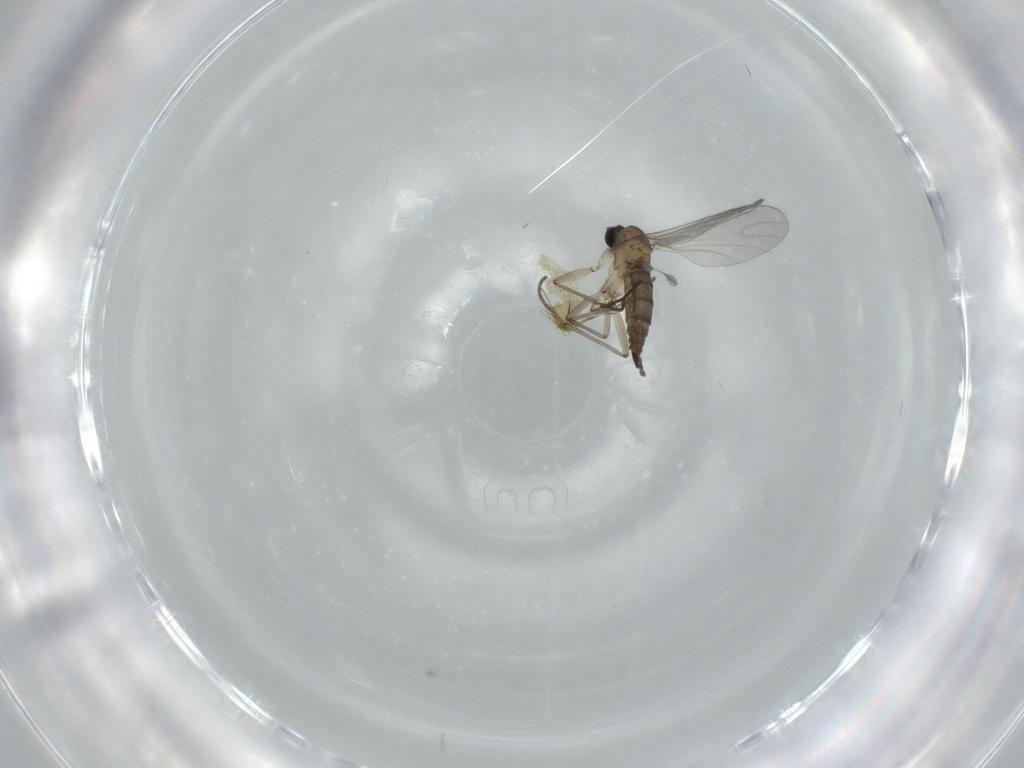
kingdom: Animalia
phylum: Arthropoda
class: Insecta
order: Diptera
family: Sciaridae
